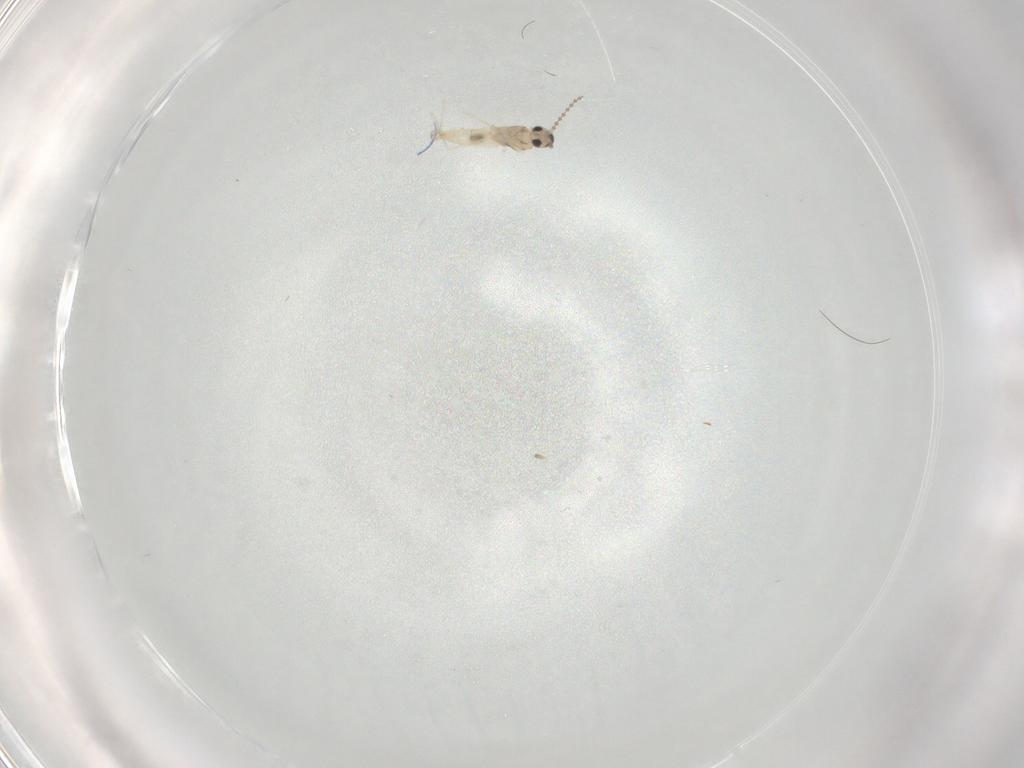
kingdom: Animalia
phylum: Arthropoda
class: Insecta
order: Diptera
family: Cecidomyiidae
